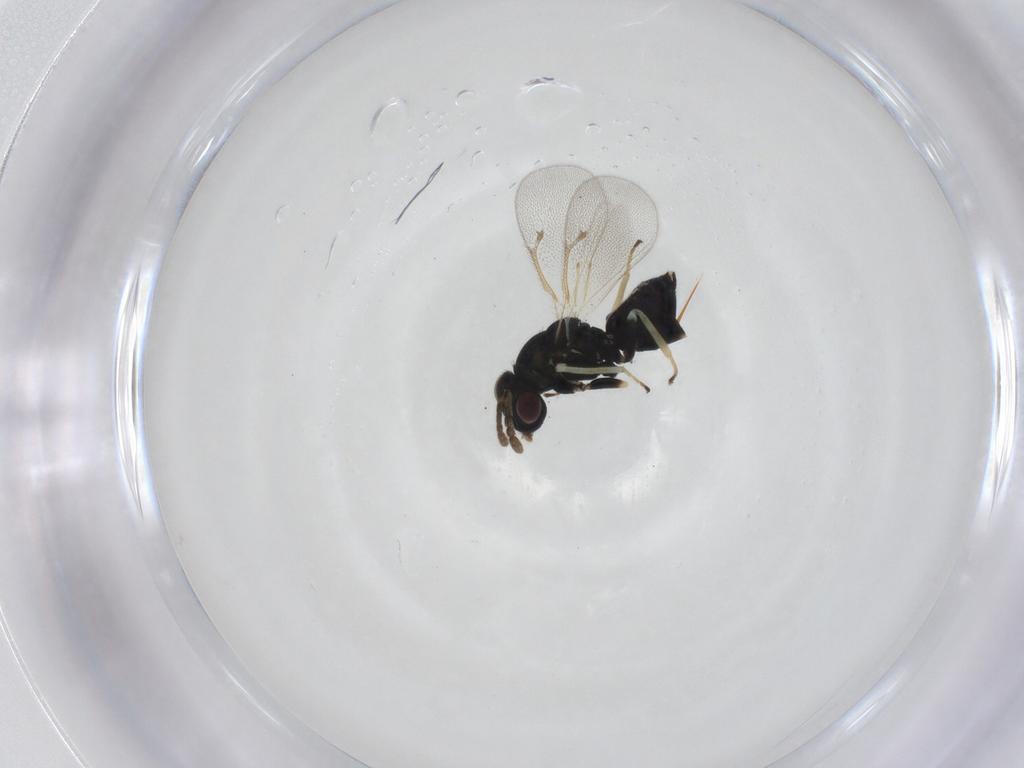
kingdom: Animalia
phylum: Arthropoda
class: Insecta
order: Hymenoptera
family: Eulophidae
